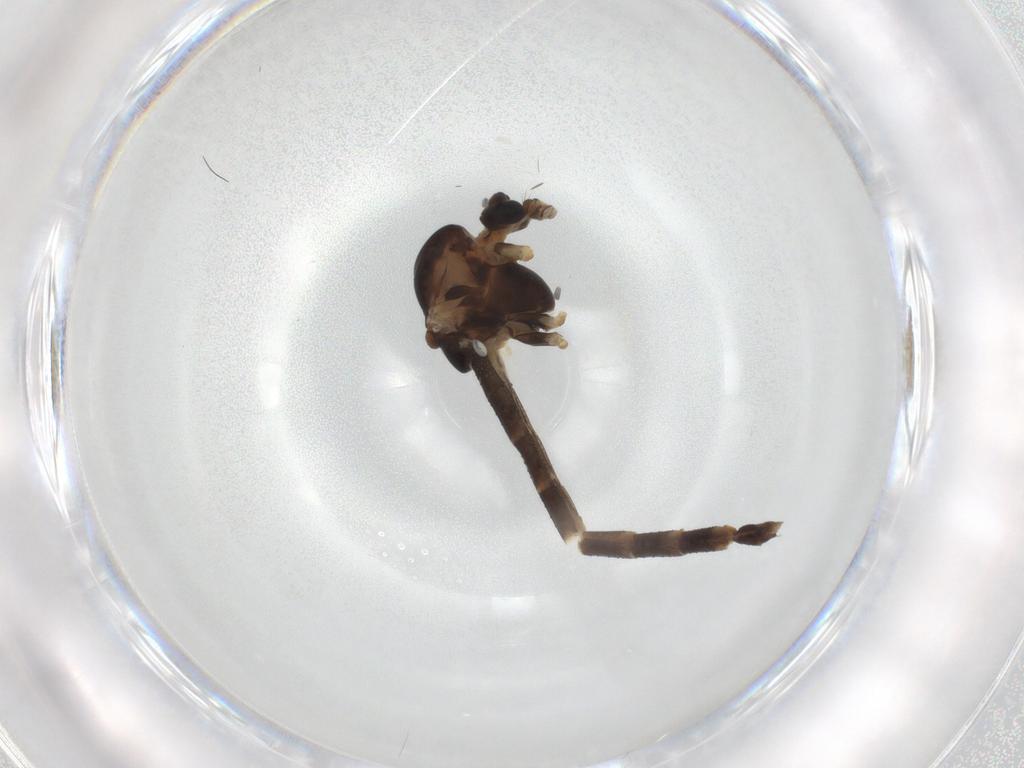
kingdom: Animalia
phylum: Arthropoda
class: Insecta
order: Diptera
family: Chironomidae
